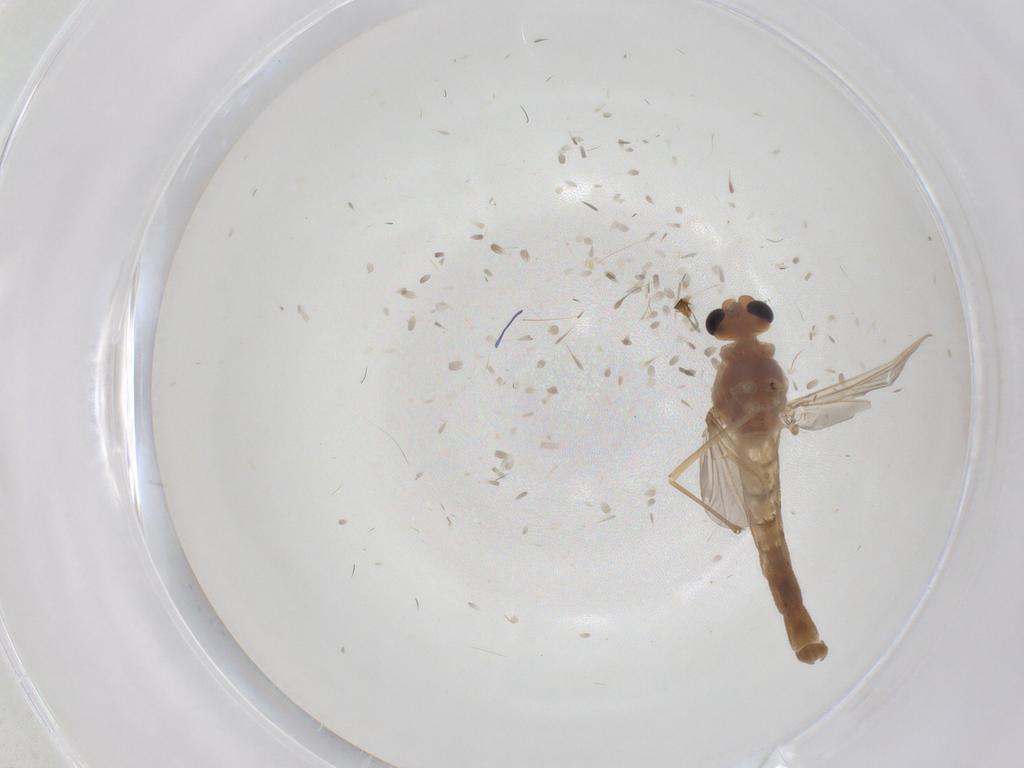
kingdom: Animalia
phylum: Arthropoda
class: Insecta
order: Diptera
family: Chironomidae
